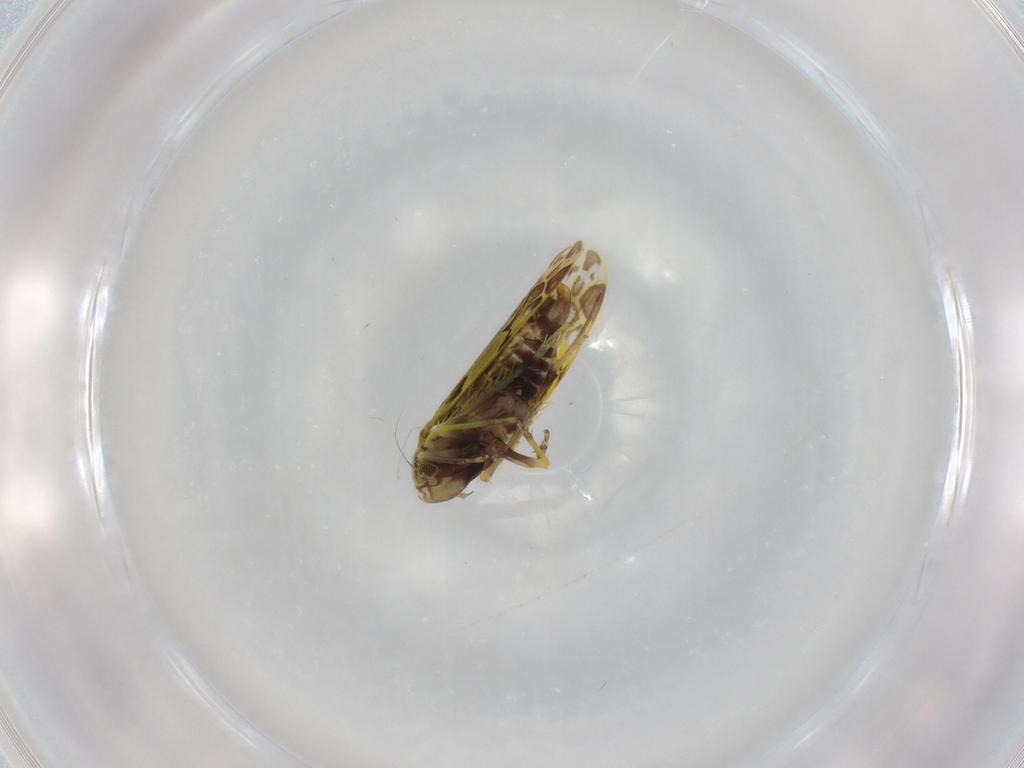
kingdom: Animalia
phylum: Arthropoda
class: Insecta
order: Hemiptera
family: Cicadellidae
